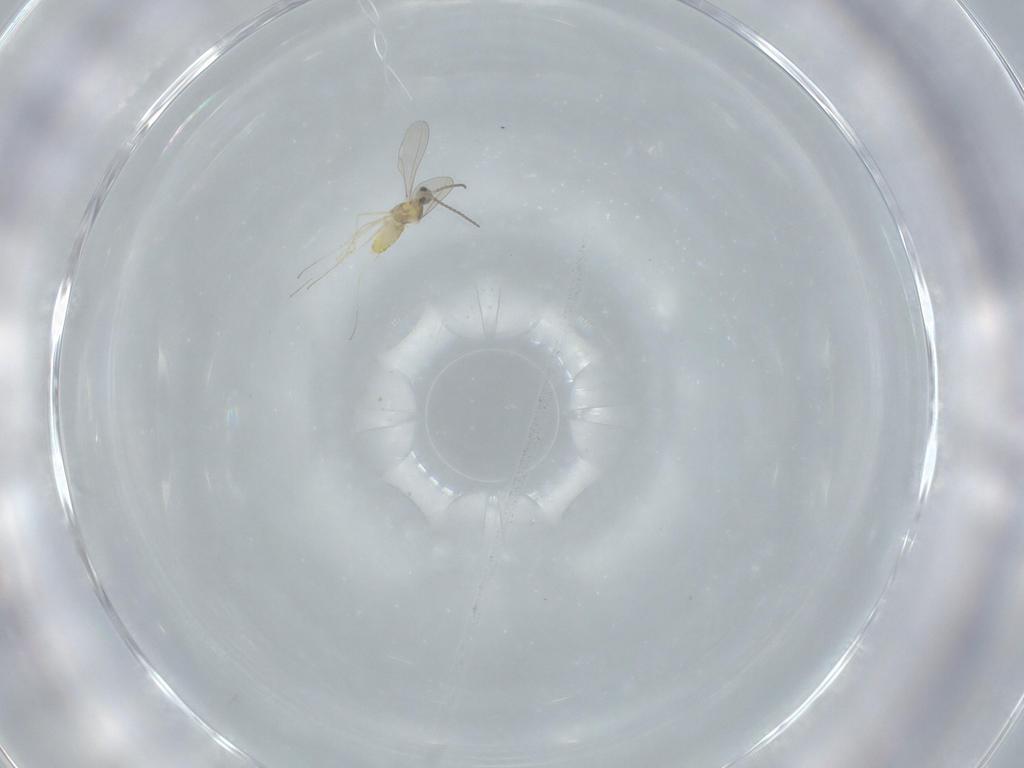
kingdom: Animalia
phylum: Arthropoda
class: Insecta
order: Diptera
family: Cecidomyiidae
